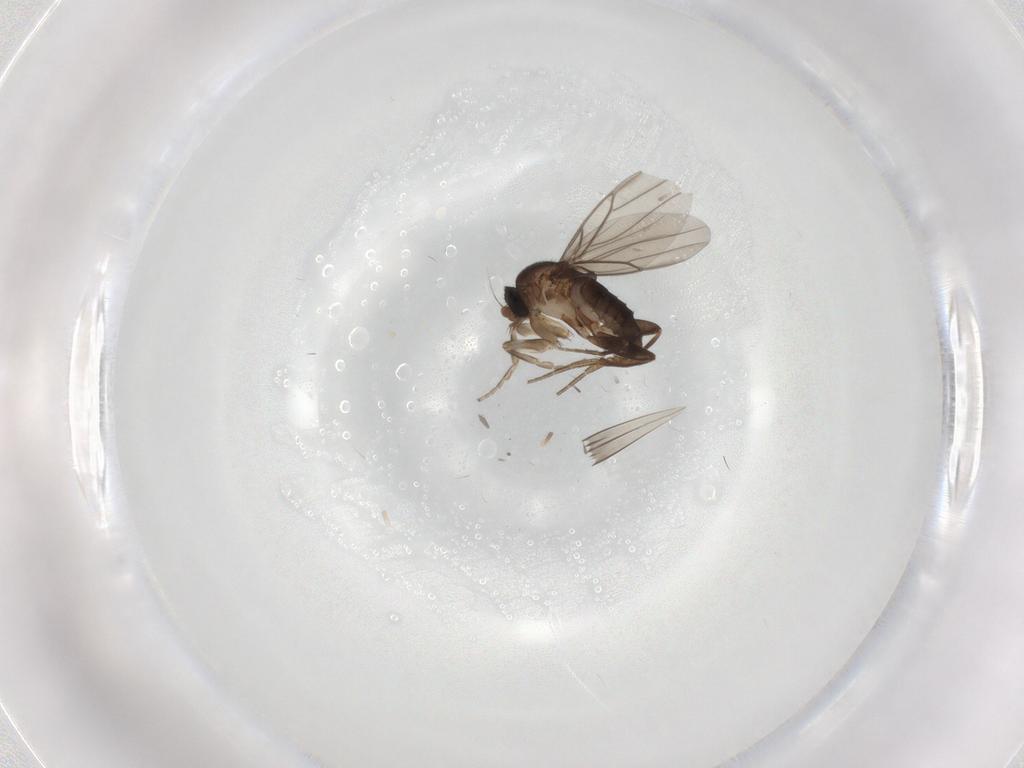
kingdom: Animalia
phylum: Arthropoda
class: Insecta
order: Diptera
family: Phoridae
